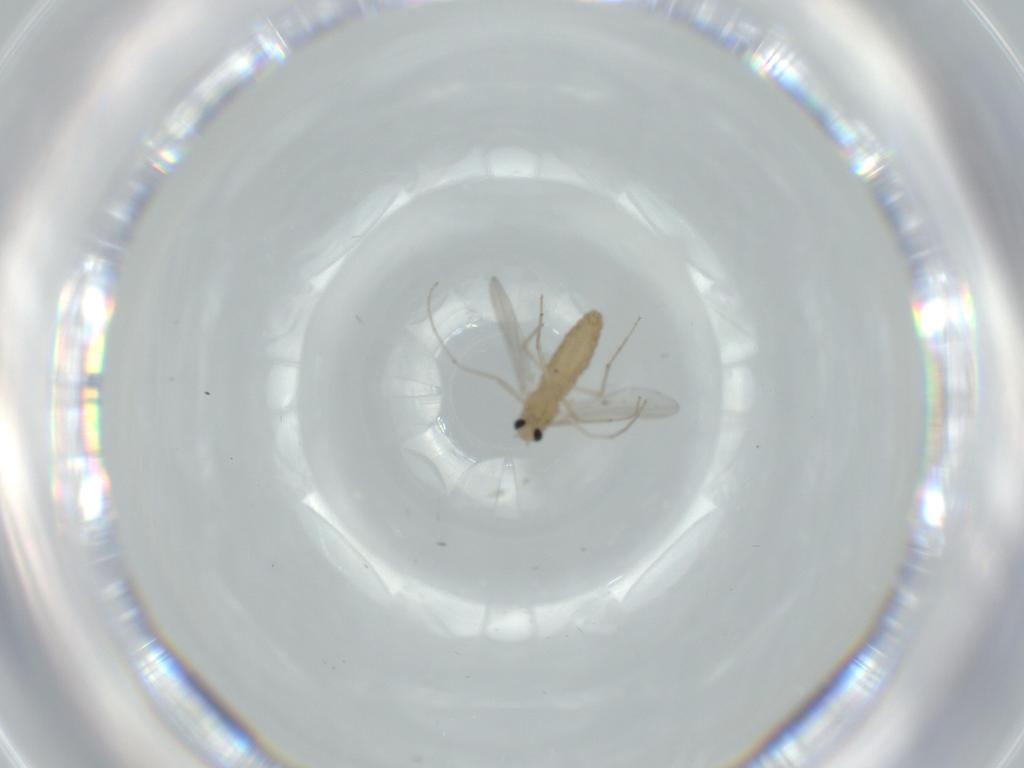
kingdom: Animalia
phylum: Arthropoda
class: Insecta
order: Diptera
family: Chironomidae
